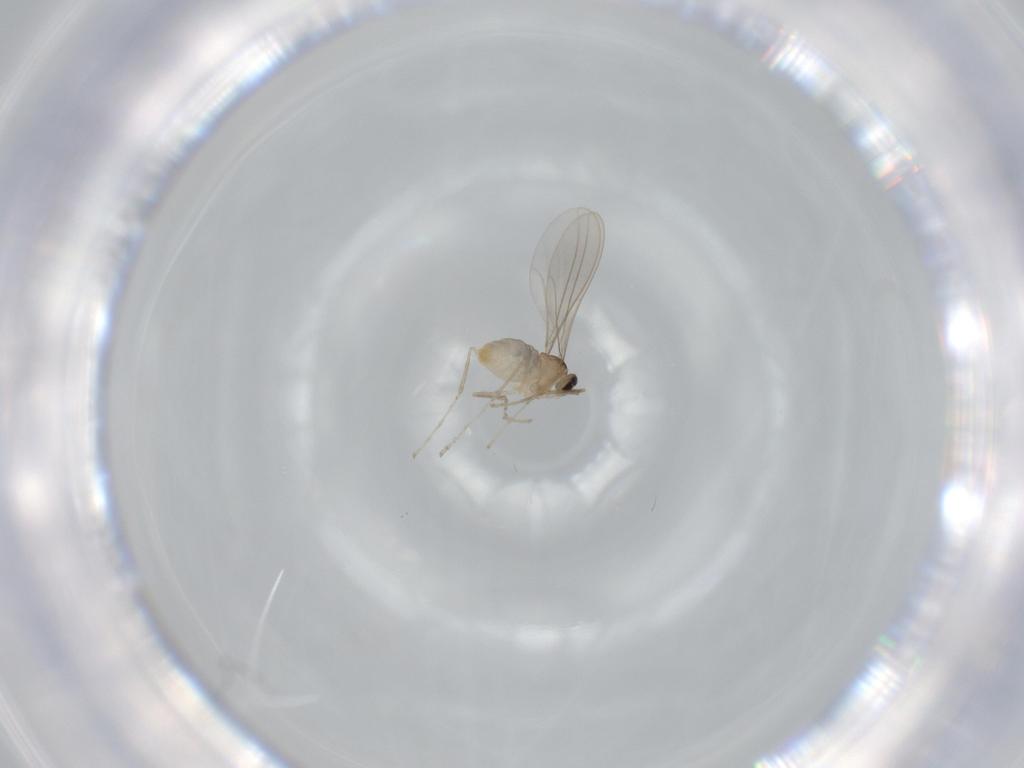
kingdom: Animalia
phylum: Arthropoda
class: Insecta
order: Diptera
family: Sciaridae
